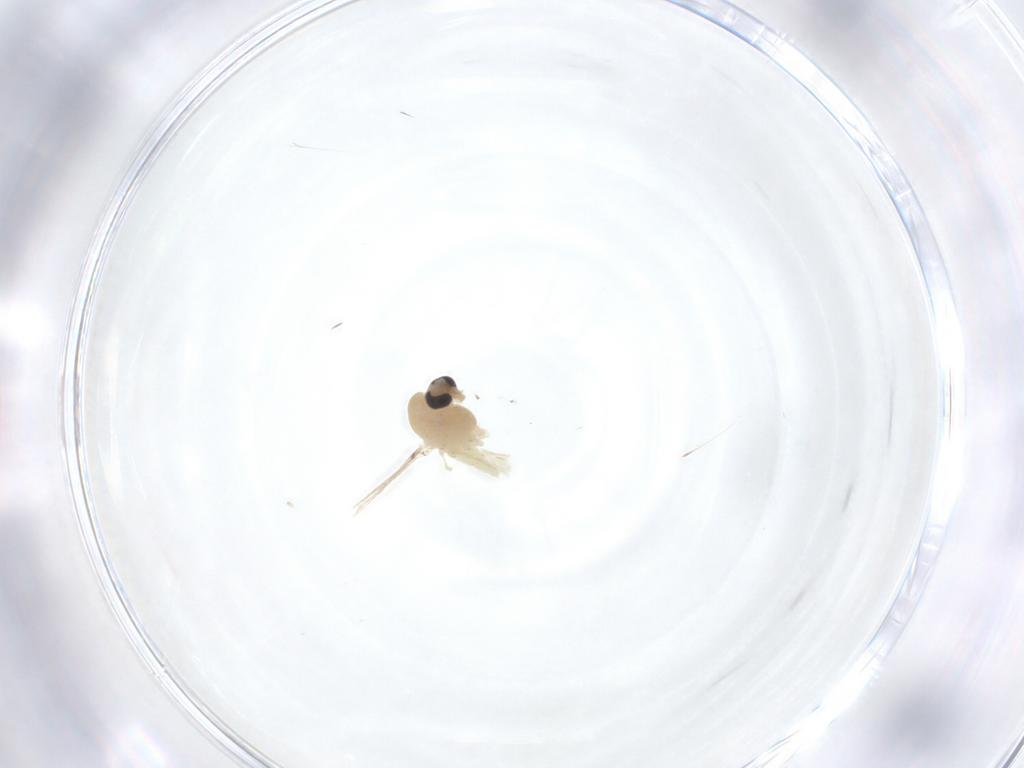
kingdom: Animalia
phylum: Arthropoda
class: Insecta
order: Diptera
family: Chironomidae
